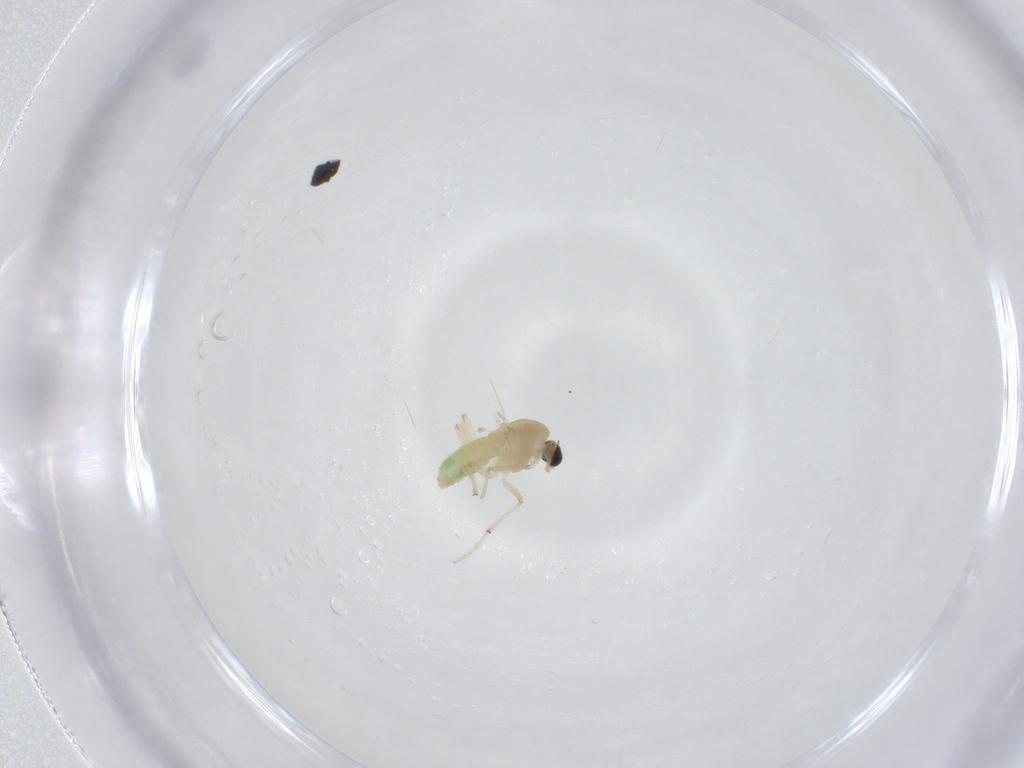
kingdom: Animalia
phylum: Arthropoda
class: Insecta
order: Diptera
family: Chironomidae
